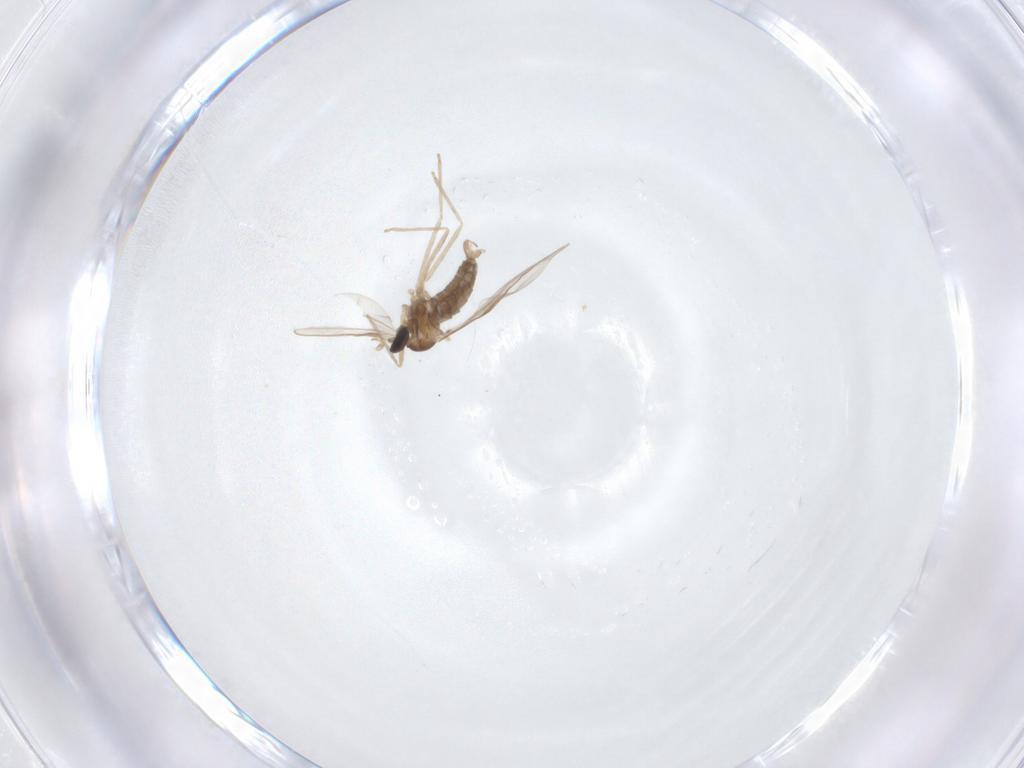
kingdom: Animalia
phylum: Arthropoda
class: Insecta
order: Diptera
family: Cecidomyiidae
